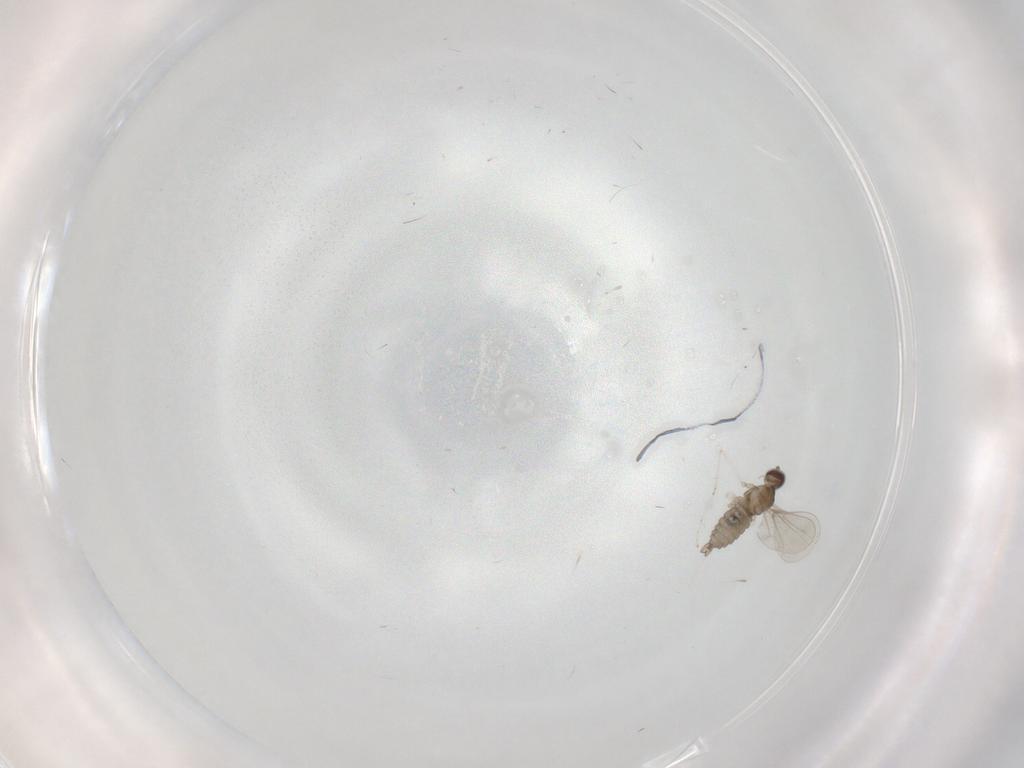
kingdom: Animalia
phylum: Arthropoda
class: Insecta
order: Diptera
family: Cecidomyiidae
